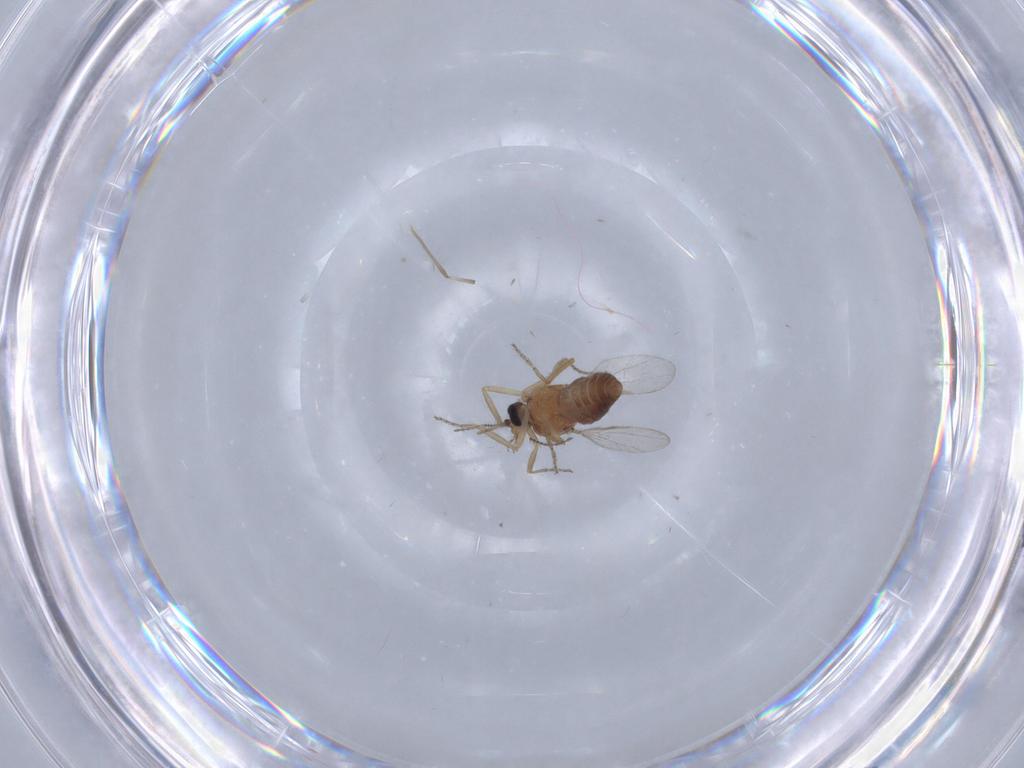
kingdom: Animalia
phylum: Arthropoda
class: Insecta
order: Diptera
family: Ceratopogonidae
